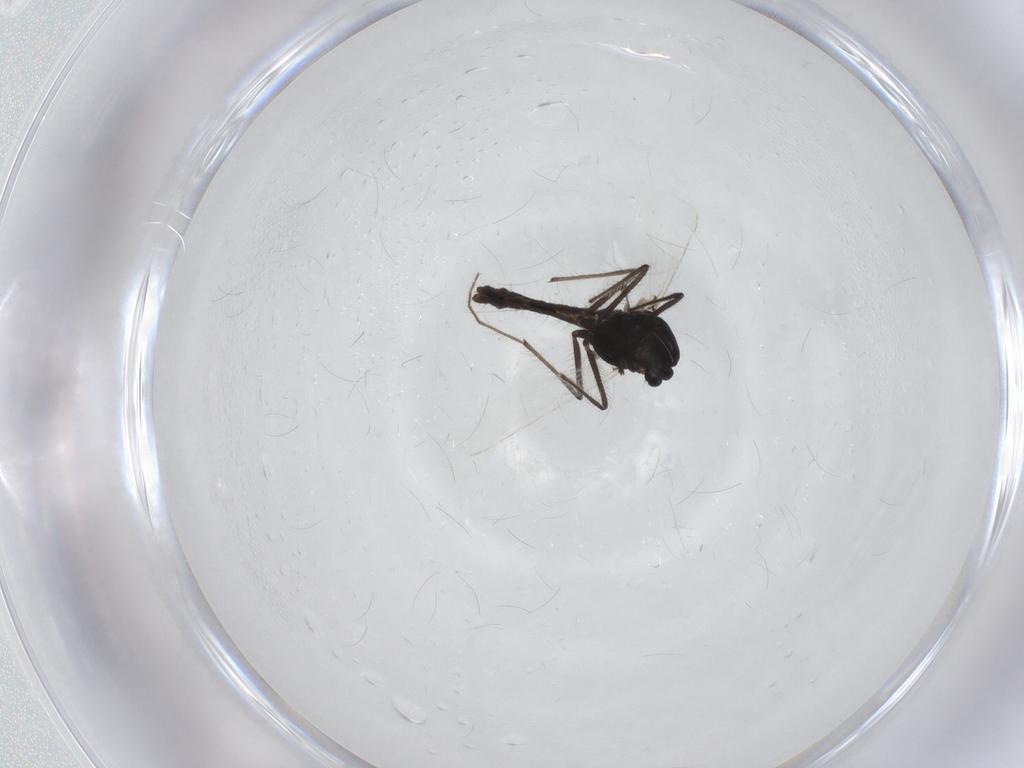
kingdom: Animalia
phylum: Arthropoda
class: Insecta
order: Diptera
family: Chironomidae
